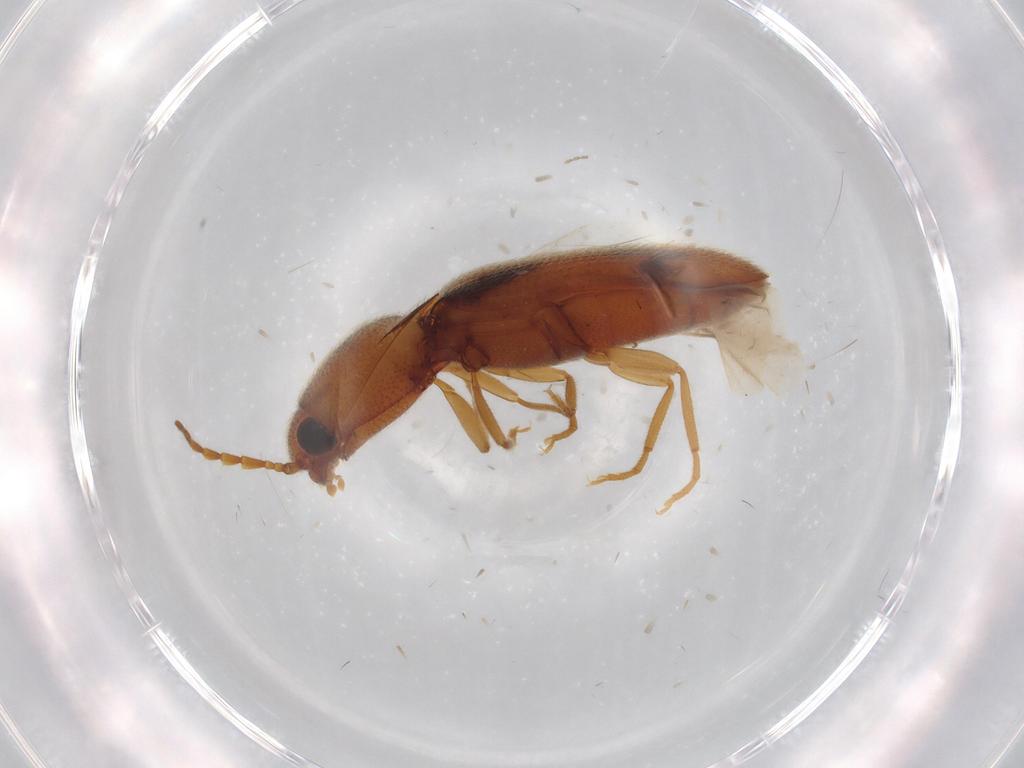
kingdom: Animalia
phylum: Arthropoda
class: Insecta
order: Coleoptera
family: Elateridae
